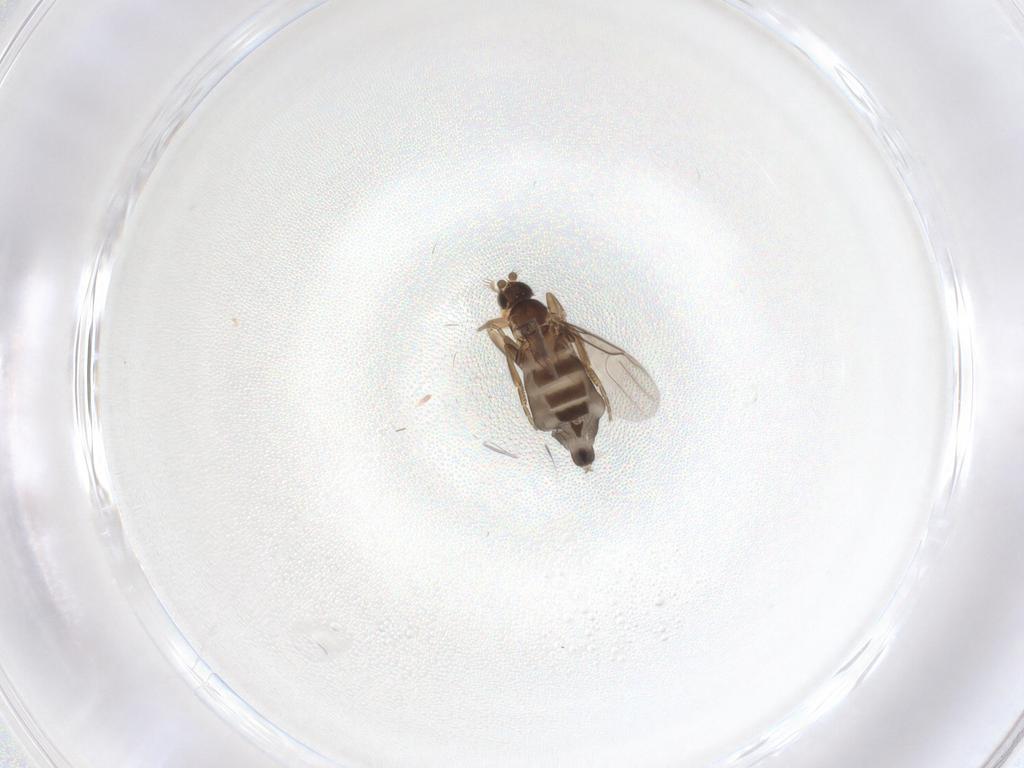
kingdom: Animalia
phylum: Arthropoda
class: Insecta
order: Diptera
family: Phoridae
